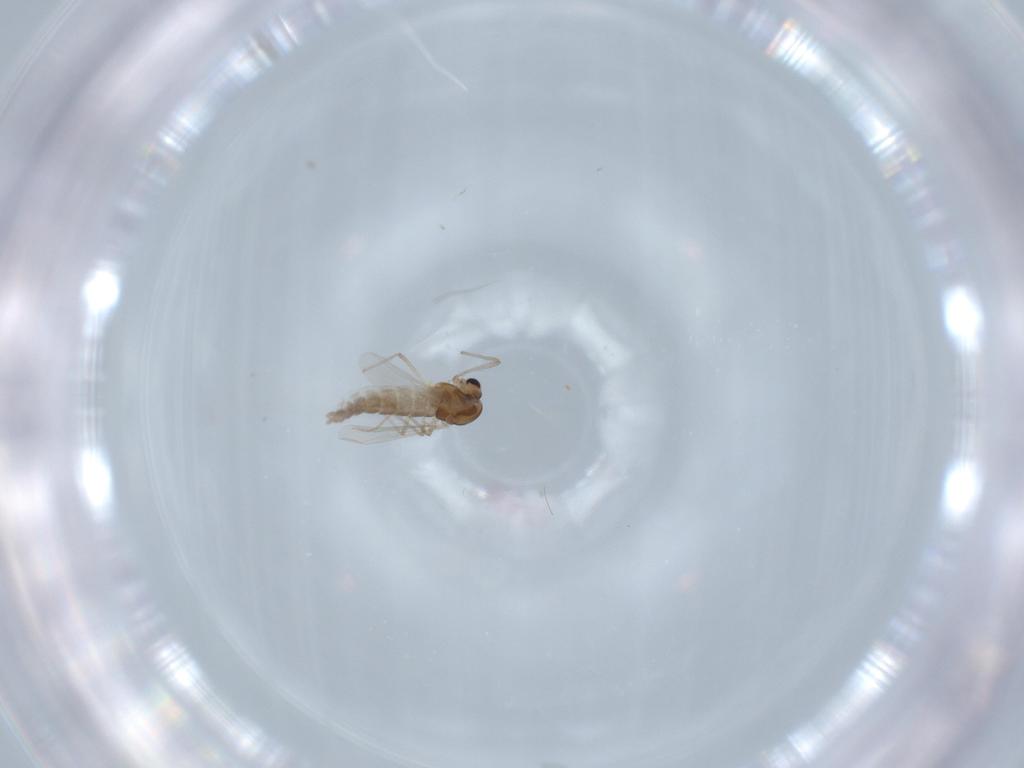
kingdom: Animalia
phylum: Arthropoda
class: Insecta
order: Diptera
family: Chironomidae
